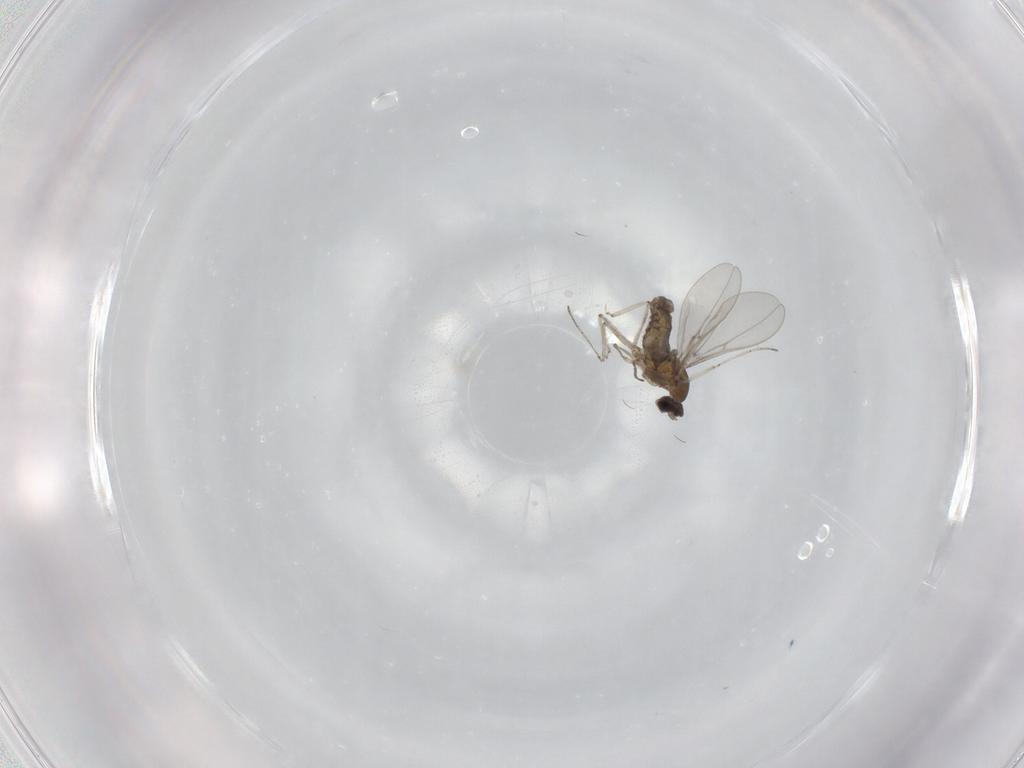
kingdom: Animalia
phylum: Arthropoda
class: Insecta
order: Diptera
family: Cecidomyiidae
